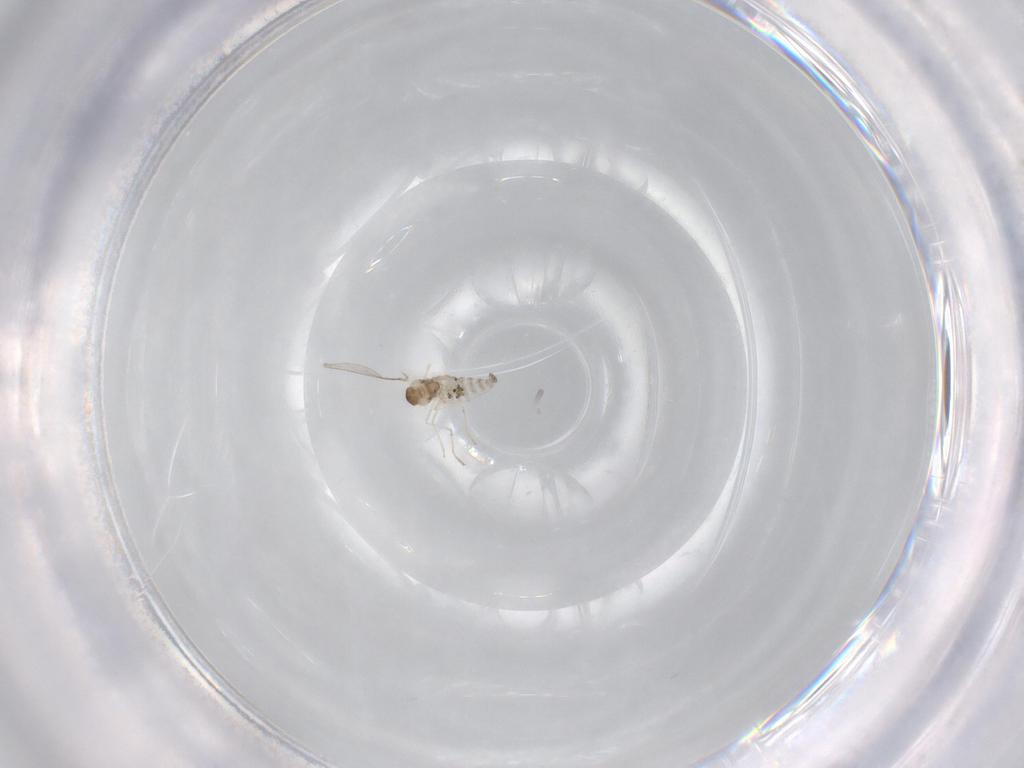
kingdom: Animalia
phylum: Arthropoda
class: Insecta
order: Diptera
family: Cecidomyiidae
